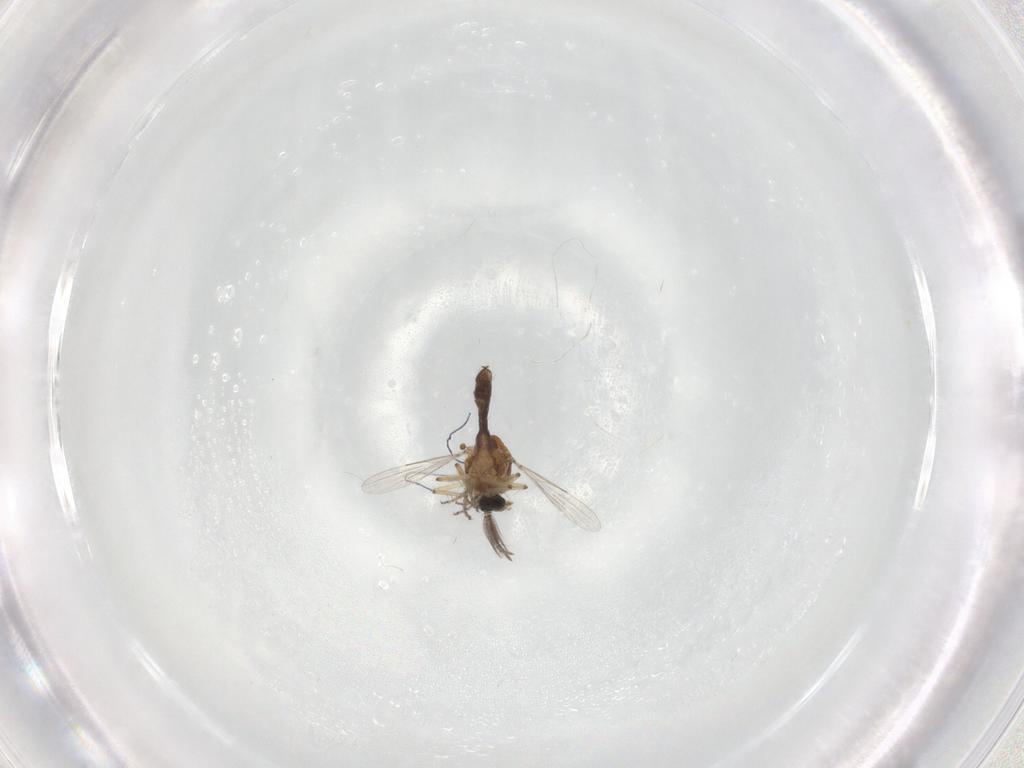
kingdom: Animalia
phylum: Arthropoda
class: Insecta
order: Diptera
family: Ceratopogonidae
